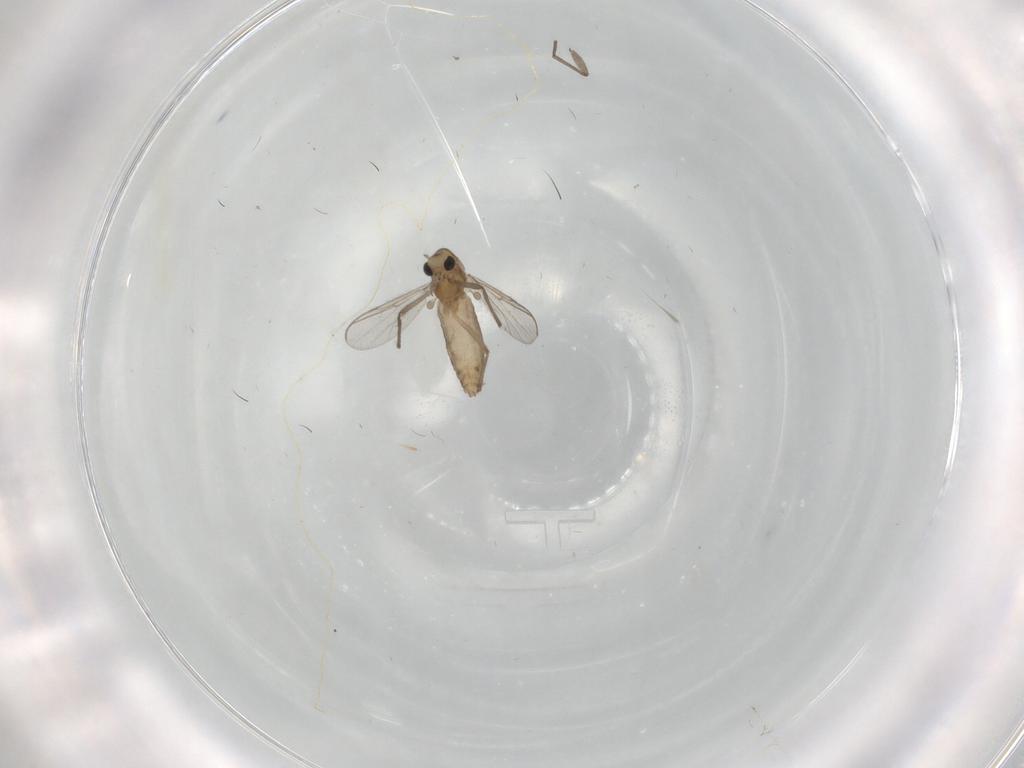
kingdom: Animalia
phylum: Arthropoda
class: Insecta
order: Diptera
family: Chironomidae
